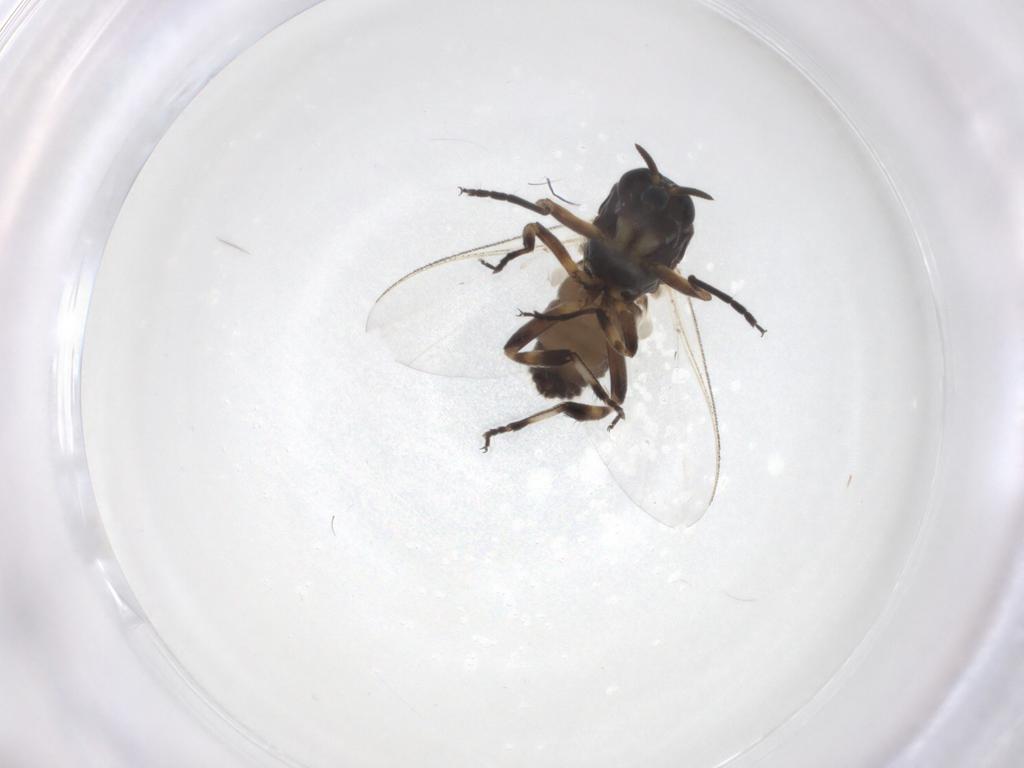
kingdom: Animalia
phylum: Arthropoda
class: Insecta
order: Diptera
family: Ceratopogonidae
